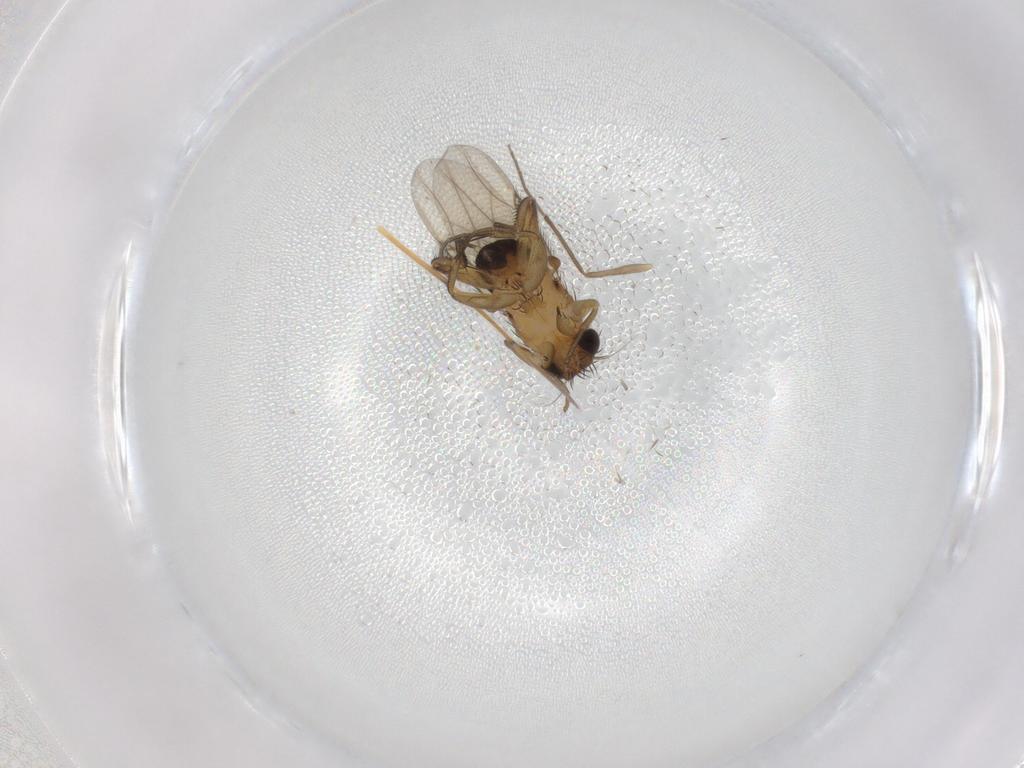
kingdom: Animalia
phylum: Arthropoda
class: Insecta
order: Diptera
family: Phoridae
